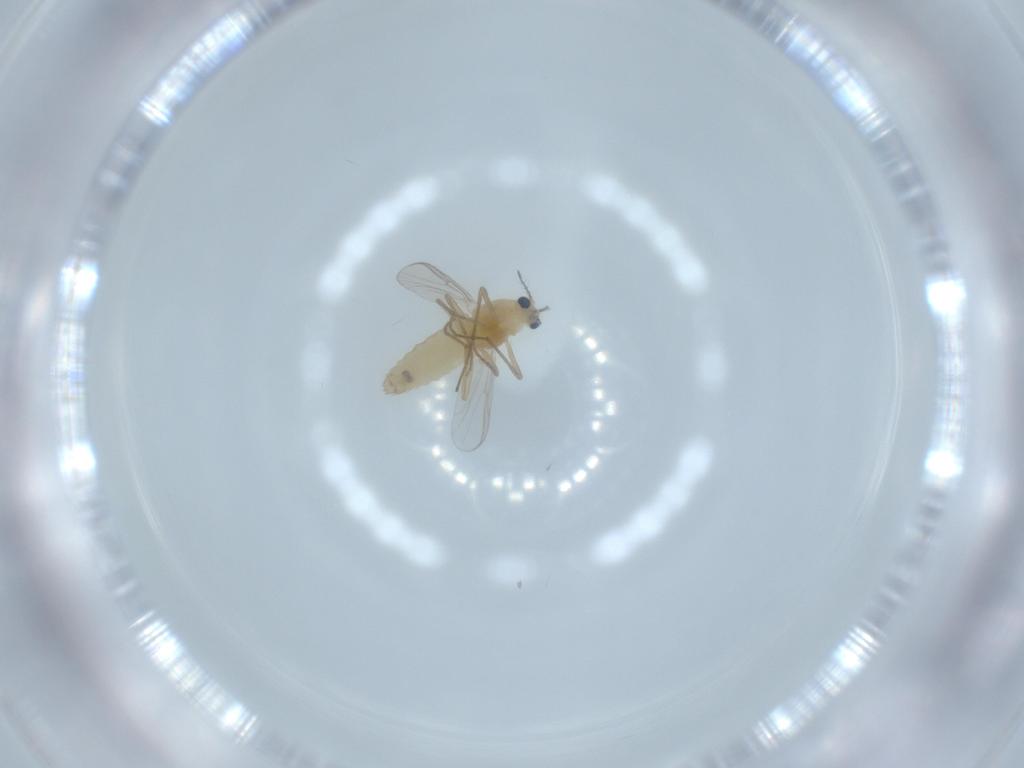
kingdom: Animalia
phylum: Arthropoda
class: Insecta
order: Diptera
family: Chironomidae
